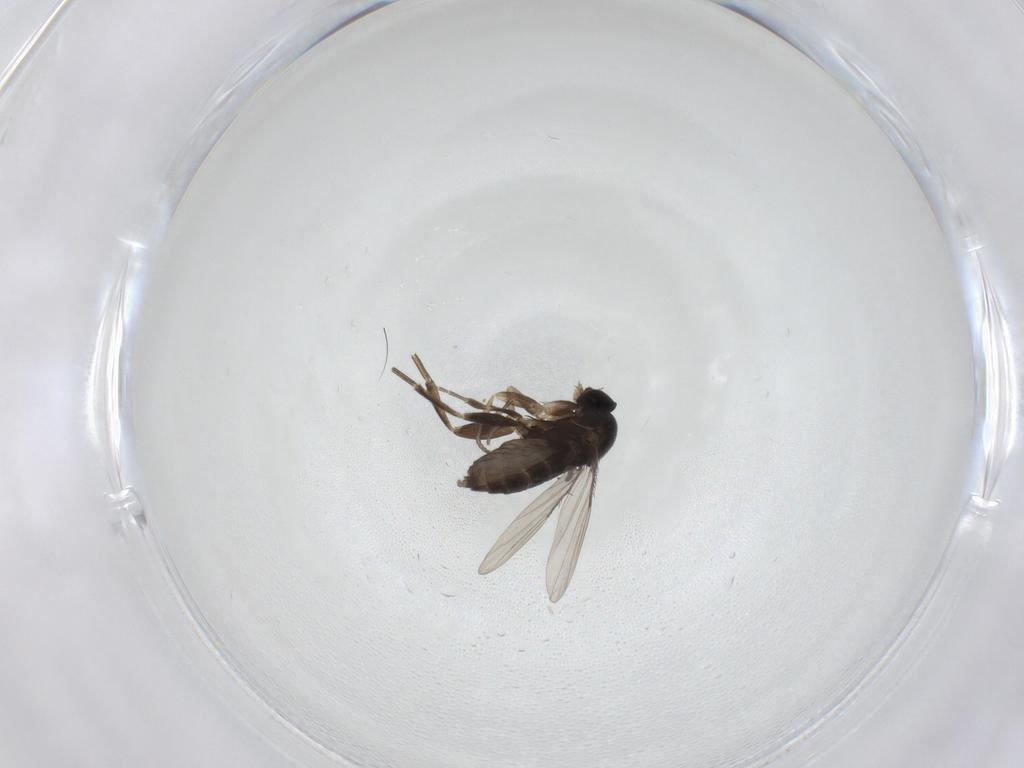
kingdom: Animalia
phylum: Arthropoda
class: Insecta
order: Diptera
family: Phoridae
